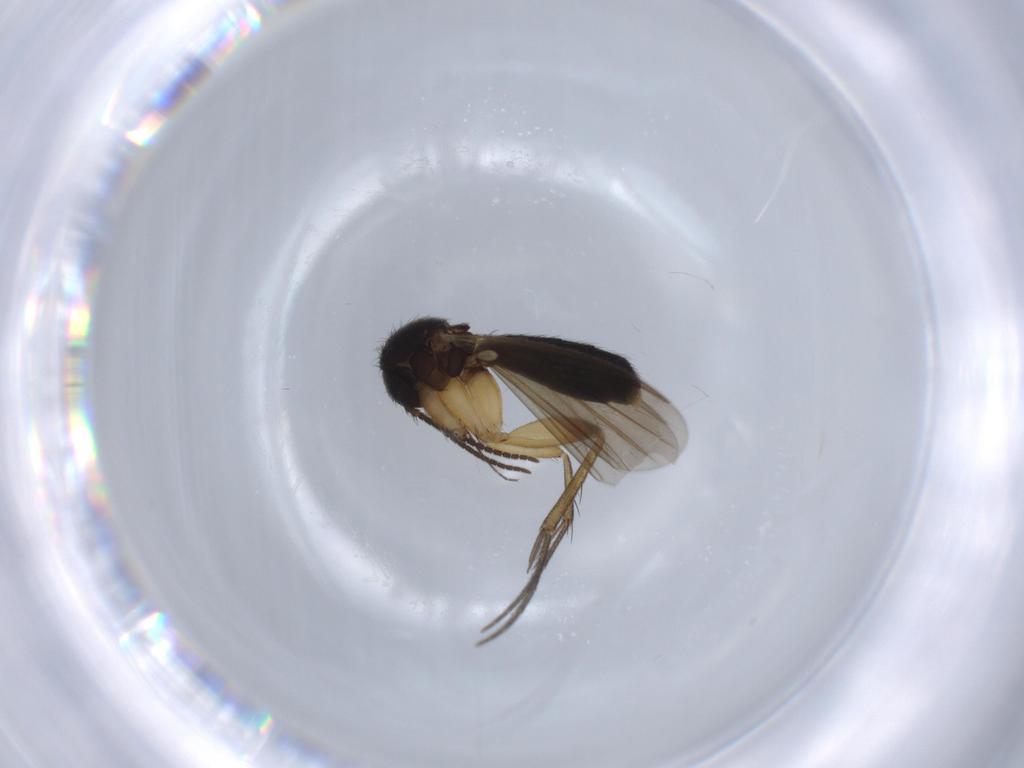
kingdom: Animalia
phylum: Arthropoda
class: Insecta
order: Diptera
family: Mycetophilidae
